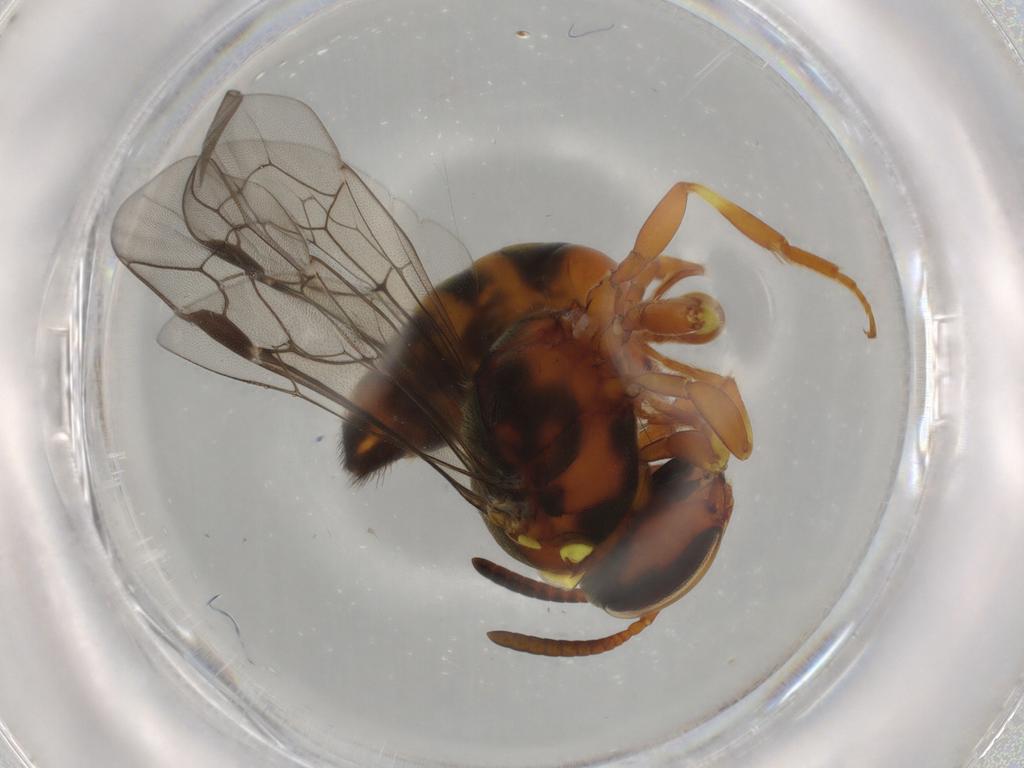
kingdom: Animalia
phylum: Arthropoda
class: Insecta
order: Hymenoptera
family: Colletidae
